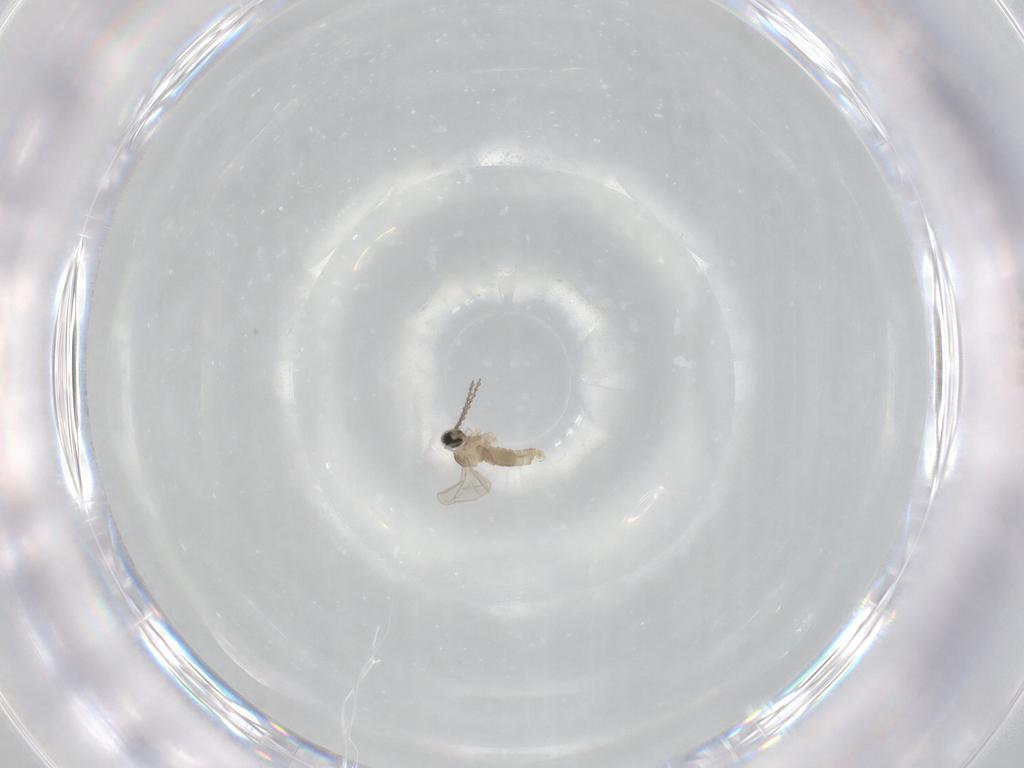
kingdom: Animalia
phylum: Arthropoda
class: Insecta
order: Diptera
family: Cecidomyiidae
